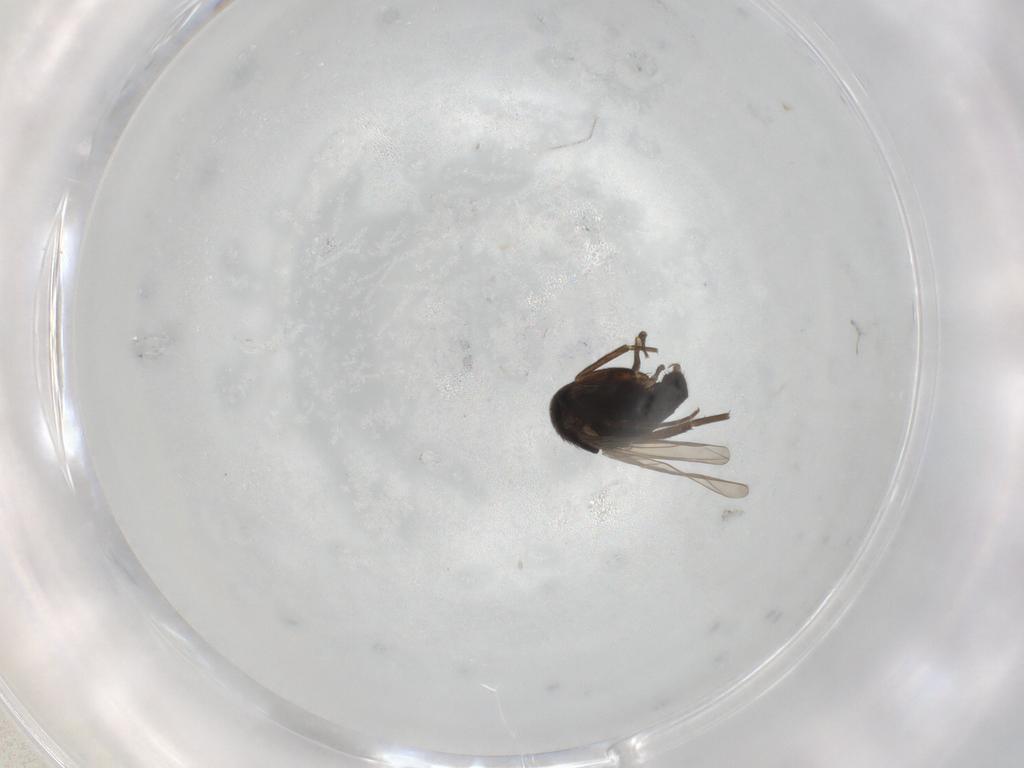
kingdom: Animalia
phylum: Arthropoda
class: Insecta
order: Diptera
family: Phoridae
